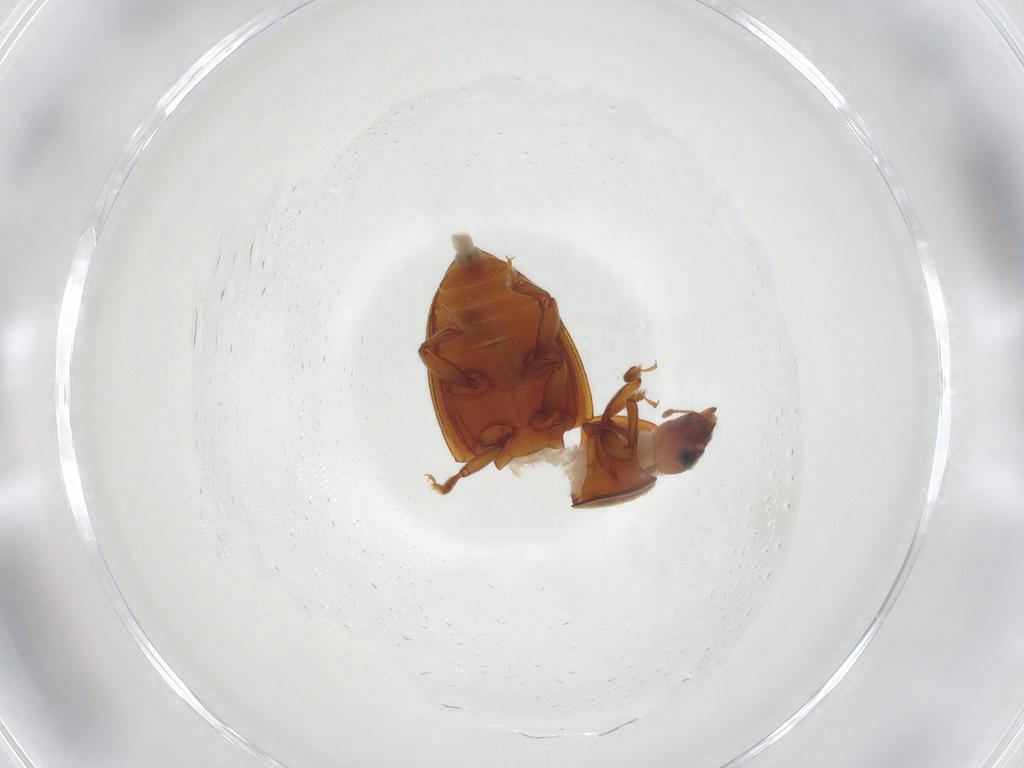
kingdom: Animalia
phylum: Arthropoda
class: Insecta
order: Coleoptera
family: Nitidulidae
